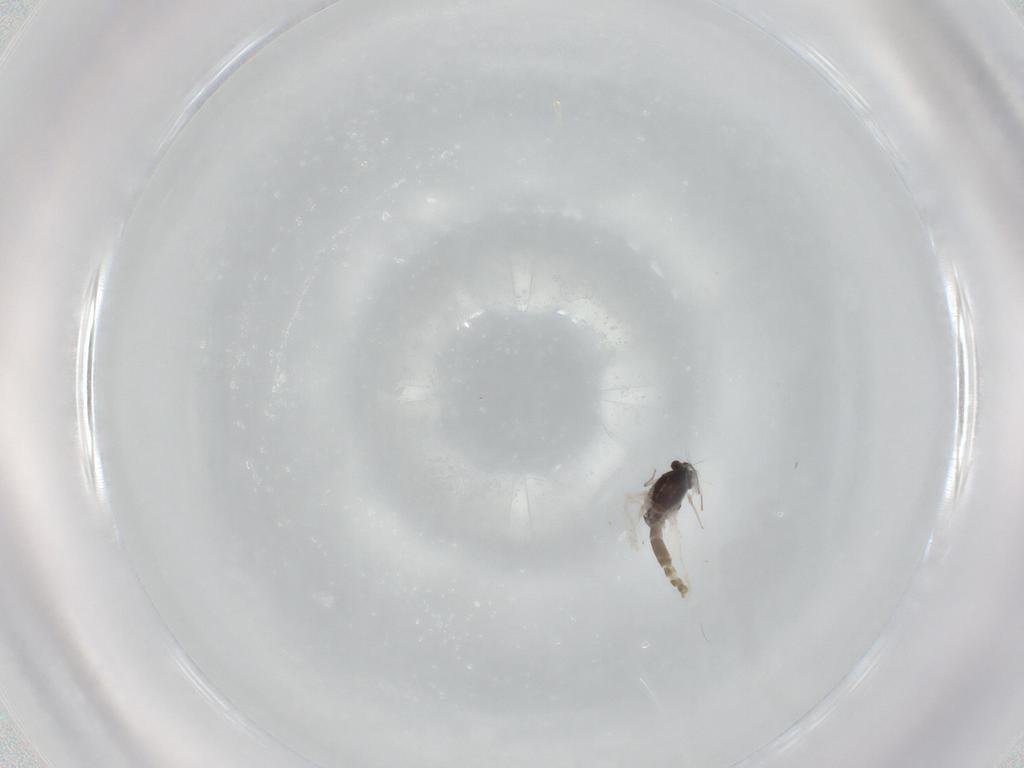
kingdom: Animalia
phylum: Arthropoda
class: Insecta
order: Diptera
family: Chironomidae
